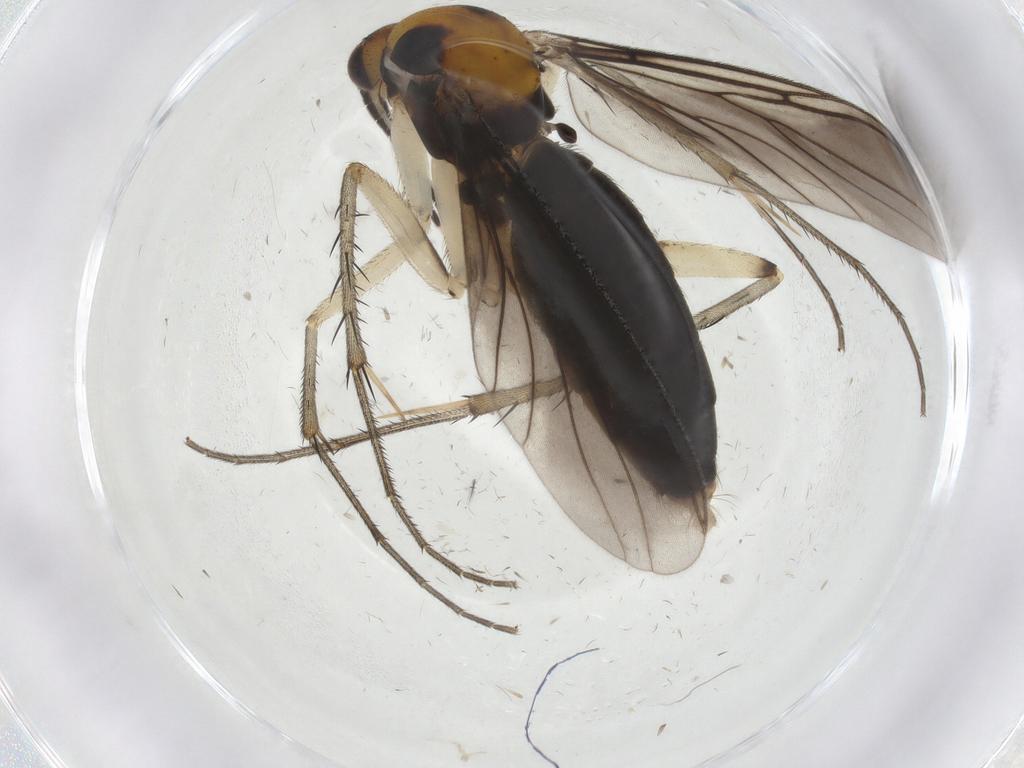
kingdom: Animalia
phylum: Arthropoda
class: Insecta
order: Diptera
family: Mycetophilidae
